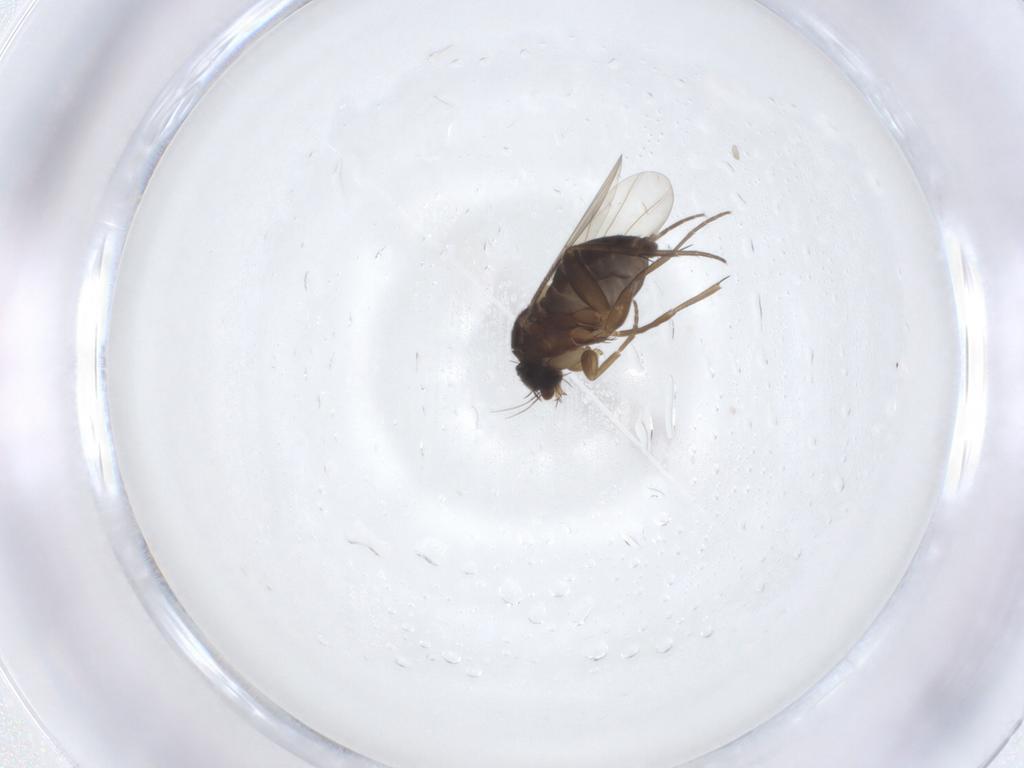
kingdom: Animalia
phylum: Arthropoda
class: Insecta
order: Diptera
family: Phoridae
